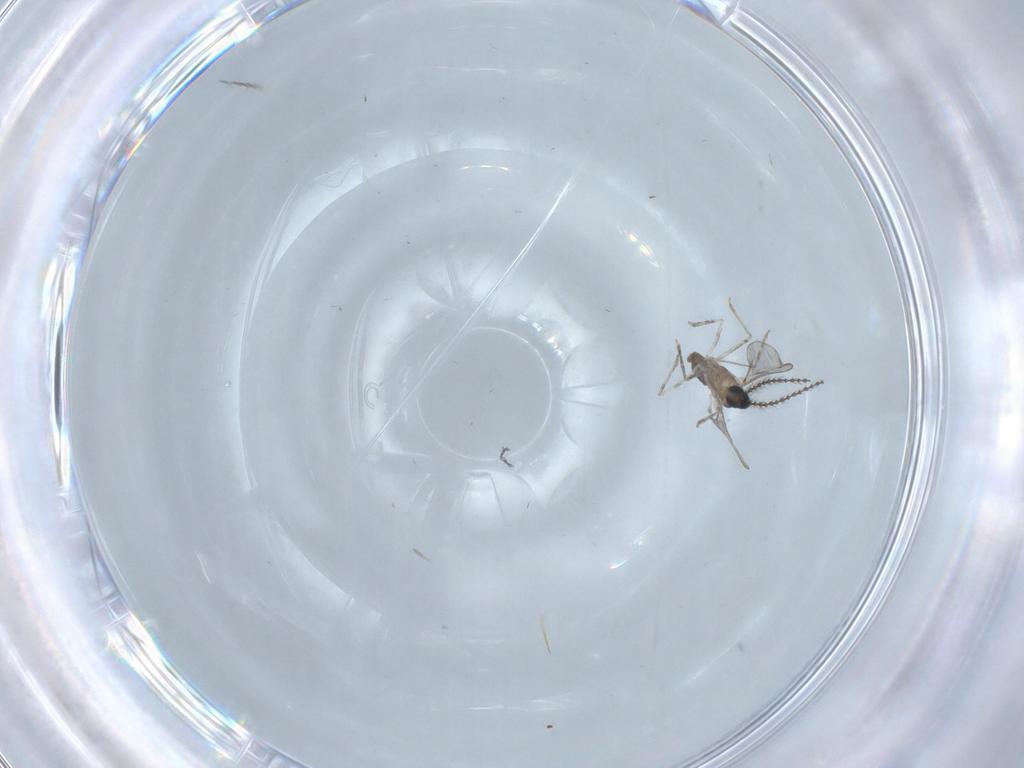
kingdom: Animalia
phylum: Arthropoda
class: Insecta
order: Diptera
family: Cecidomyiidae
